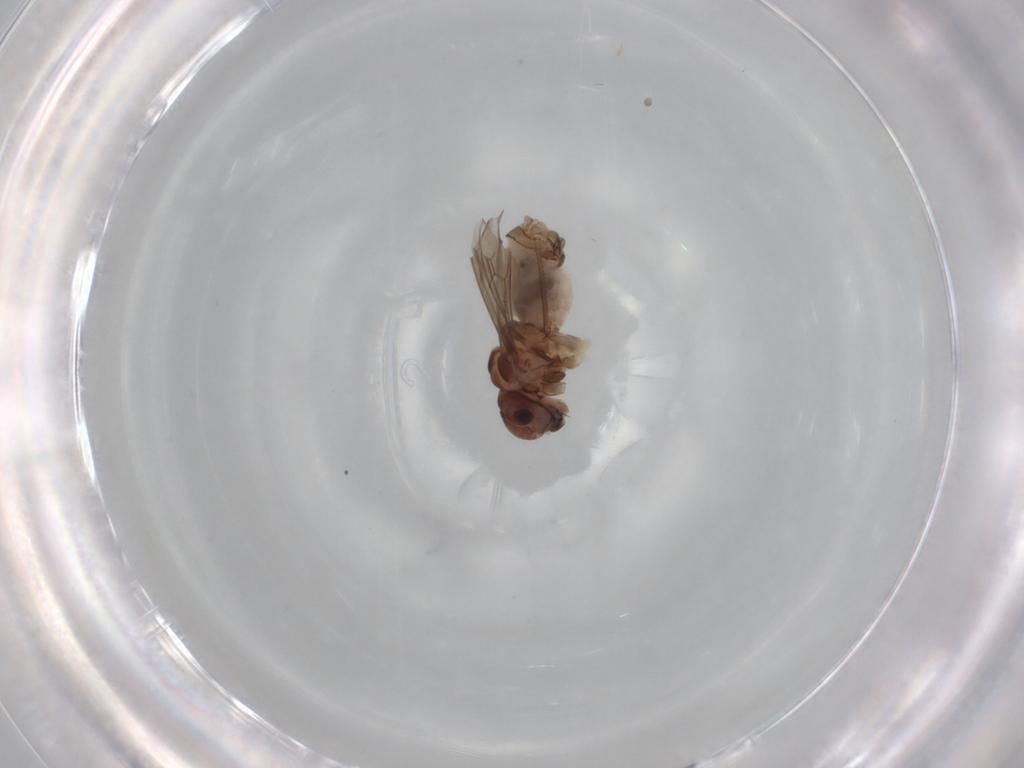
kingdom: Animalia
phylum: Arthropoda
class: Insecta
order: Psocodea
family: Peripsocidae
